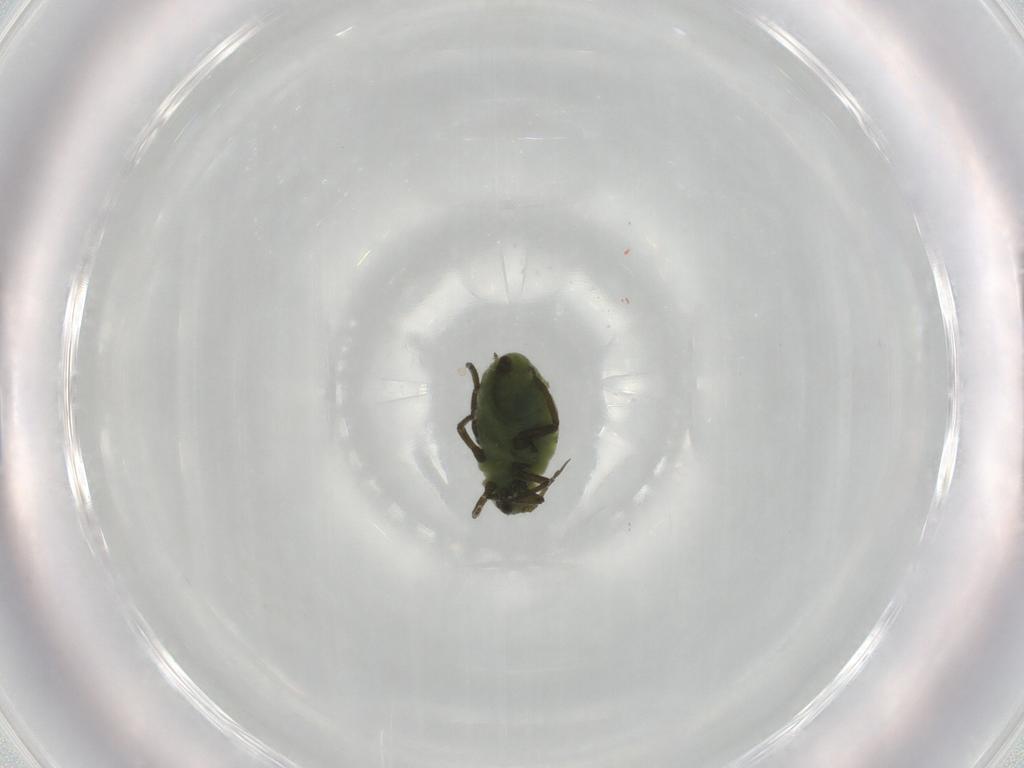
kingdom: Animalia
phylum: Arthropoda
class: Insecta
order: Hemiptera
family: Aphididae
